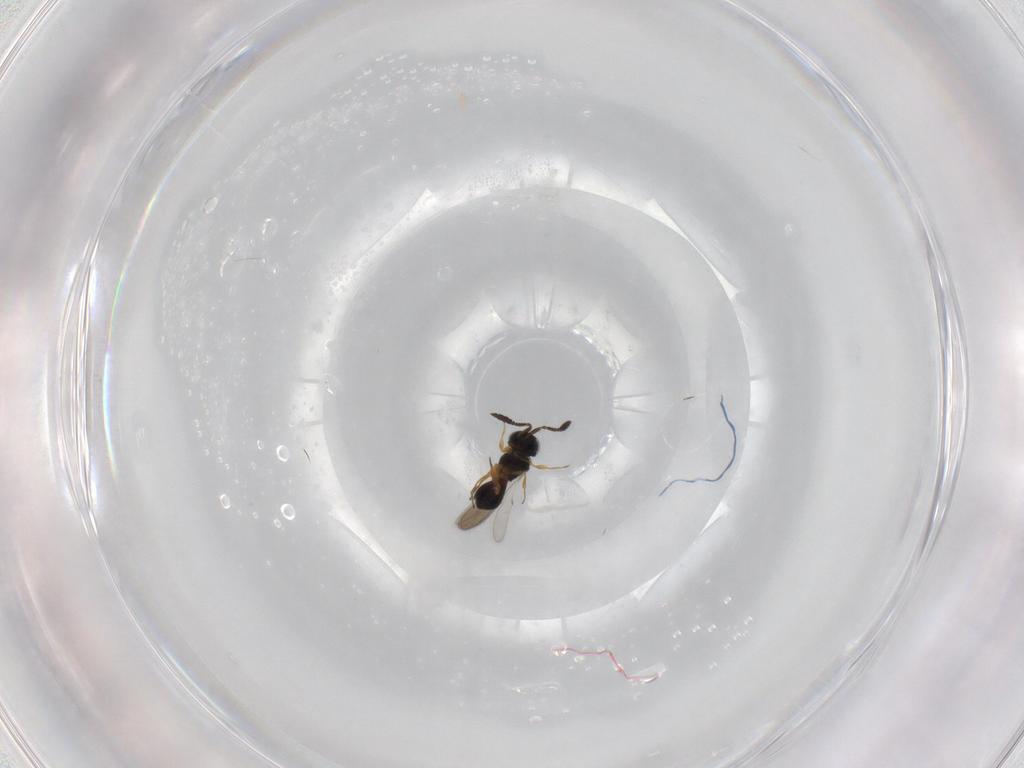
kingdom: Animalia
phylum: Arthropoda
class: Insecta
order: Hymenoptera
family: Scelionidae
